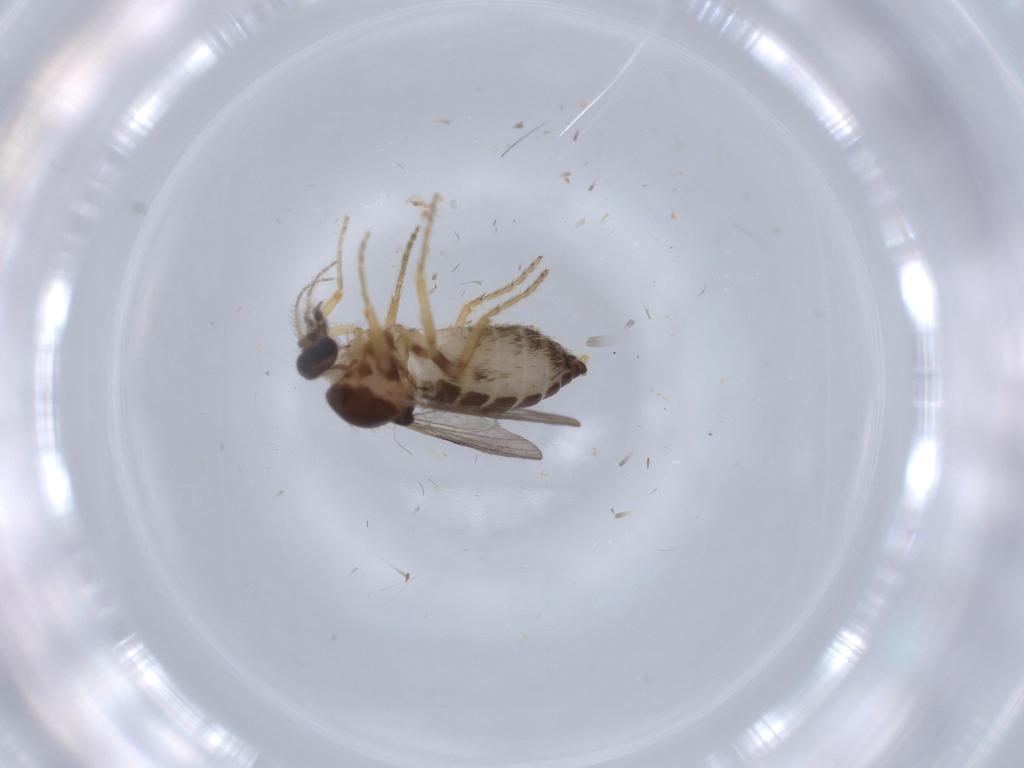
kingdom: Animalia
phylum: Arthropoda
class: Insecta
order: Diptera
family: Ceratopogonidae
